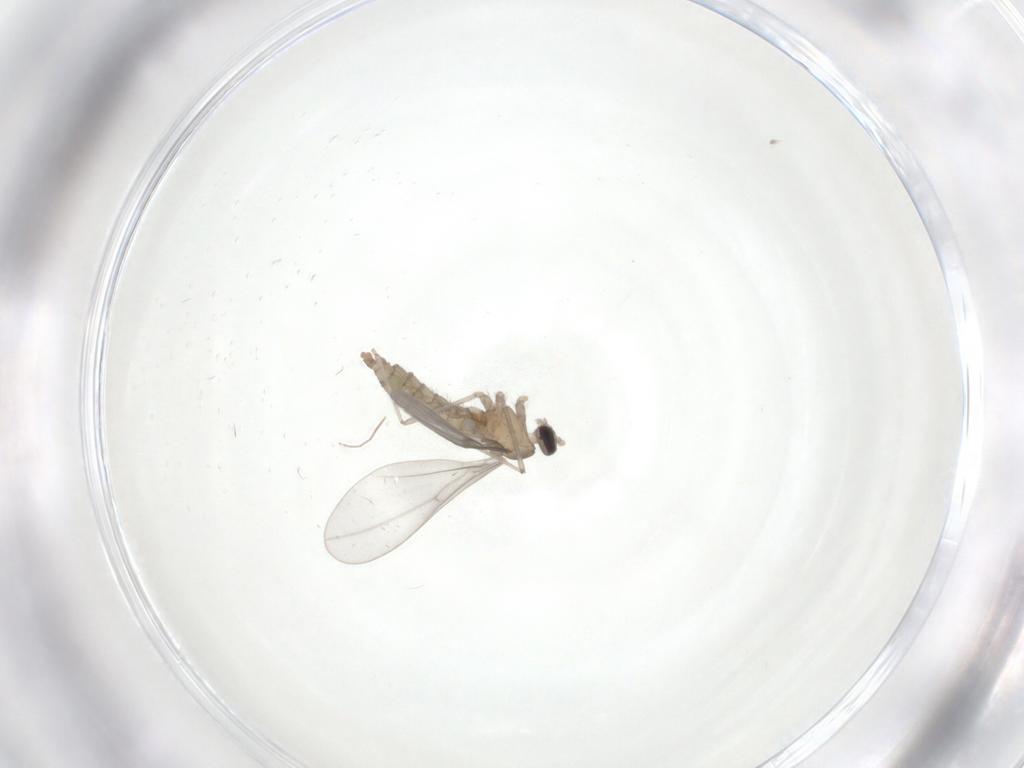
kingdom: Animalia
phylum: Arthropoda
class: Insecta
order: Diptera
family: Chironomidae
